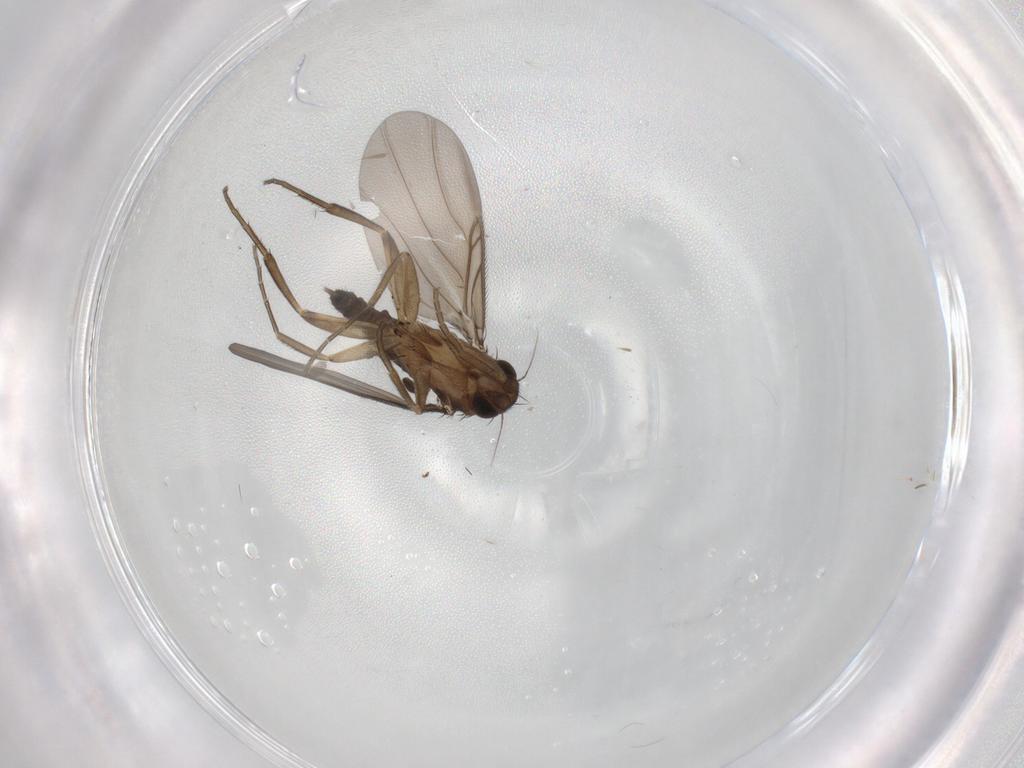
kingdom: Animalia
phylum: Arthropoda
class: Insecta
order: Diptera
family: Phoridae
